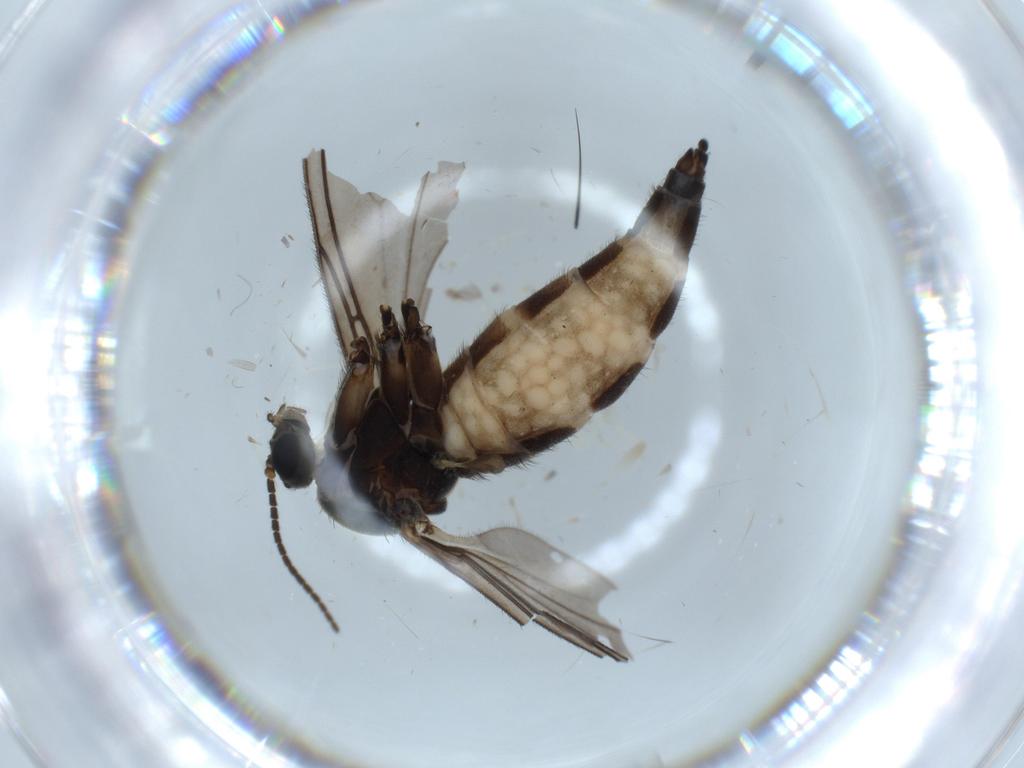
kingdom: Animalia
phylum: Arthropoda
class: Insecta
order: Diptera
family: Sciaridae
